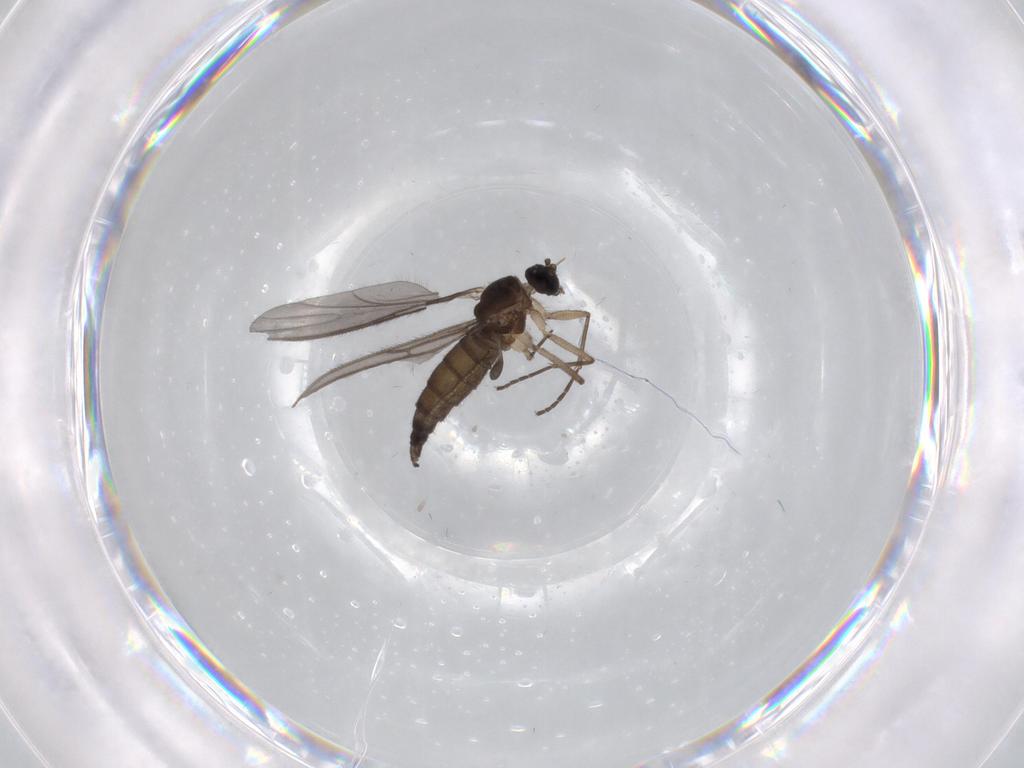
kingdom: Animalia
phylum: Arthropoda
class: Insecta
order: Diptera
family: Sciaridae
